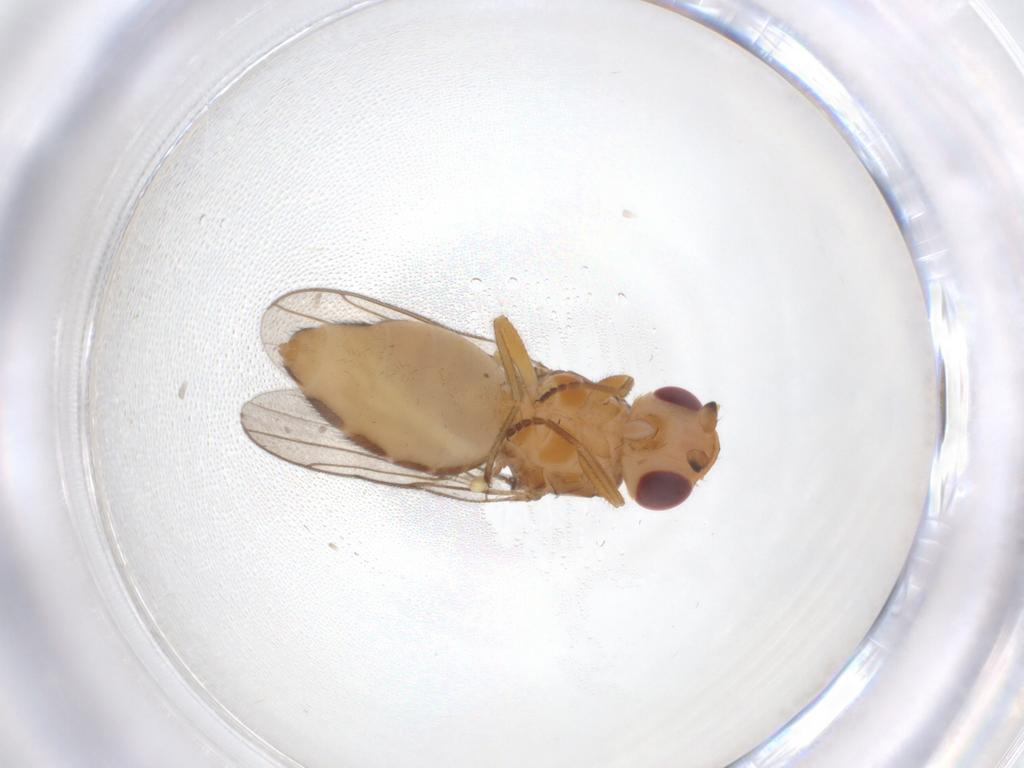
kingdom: Animalia
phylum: Arthropoda
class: Insecta
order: Diptera
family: Chloropidae
